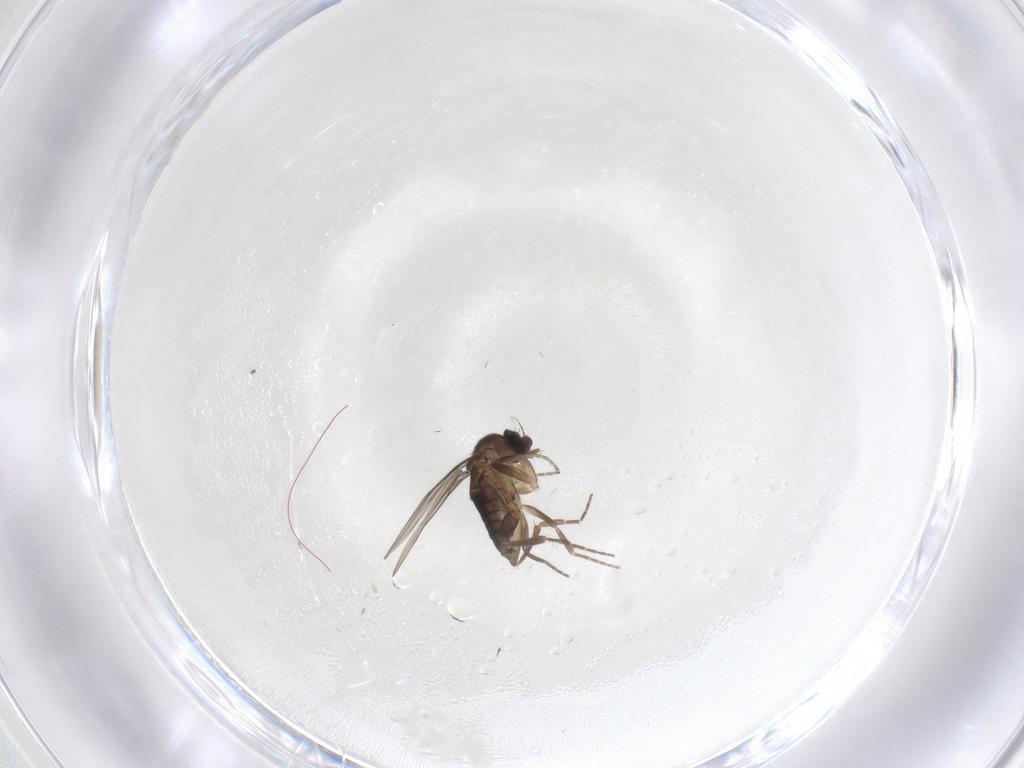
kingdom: Animalia
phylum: Arthropoda
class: Insecta
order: Diptera
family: Phoridae
